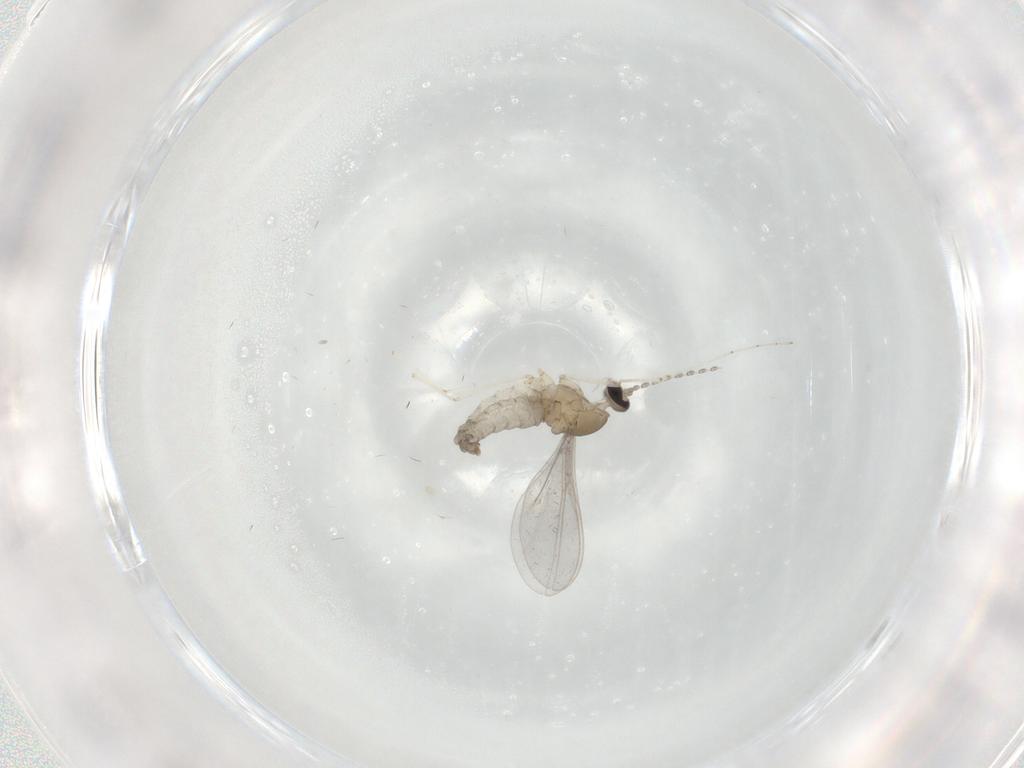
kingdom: Animalia
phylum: Arthropoda
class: Insecta
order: Diptera
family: Cecidomyiidae
